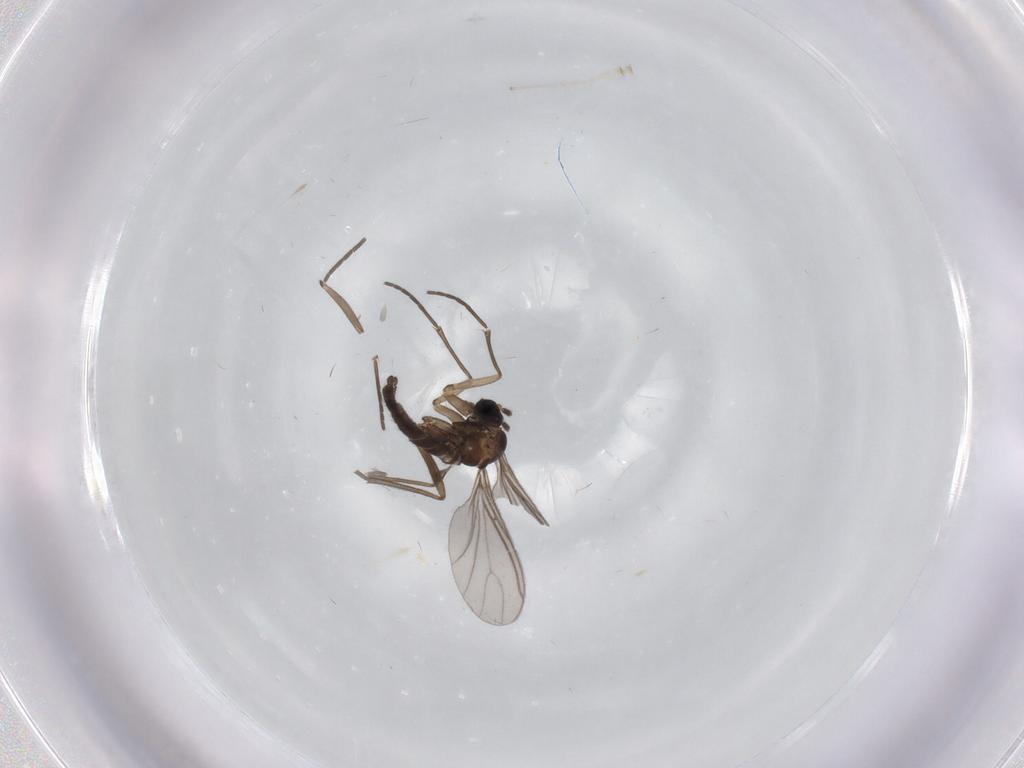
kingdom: Animalia
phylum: Arthropoda
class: Insecta
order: Diptera
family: Ceratopogonidae
